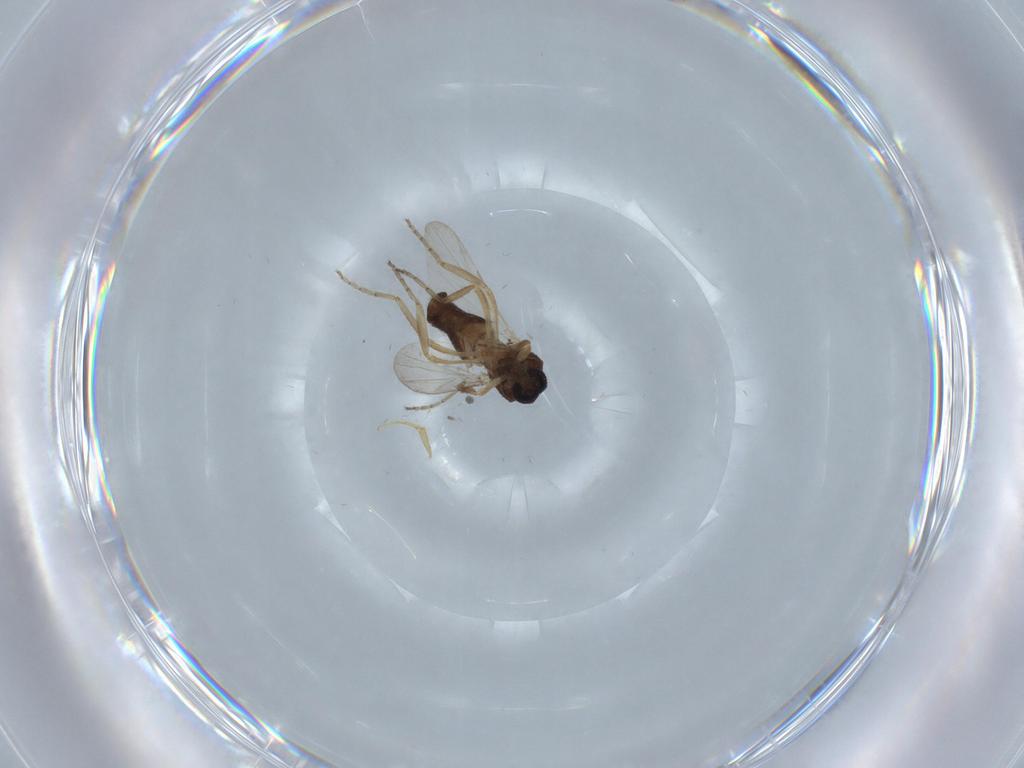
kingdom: Animalia
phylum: Arthropoda
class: Insecta
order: Diptera
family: Ceratopogonidae
